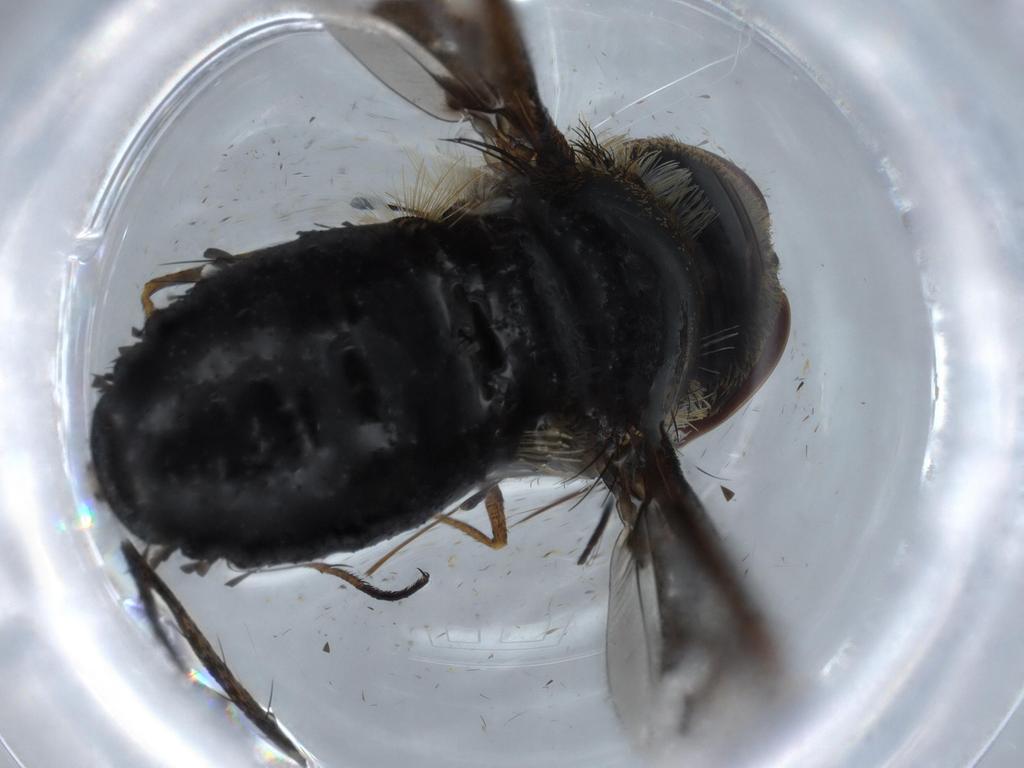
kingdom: Animalia
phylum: Arthropoda
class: Insecta
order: Diptera
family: Bombyliidae
